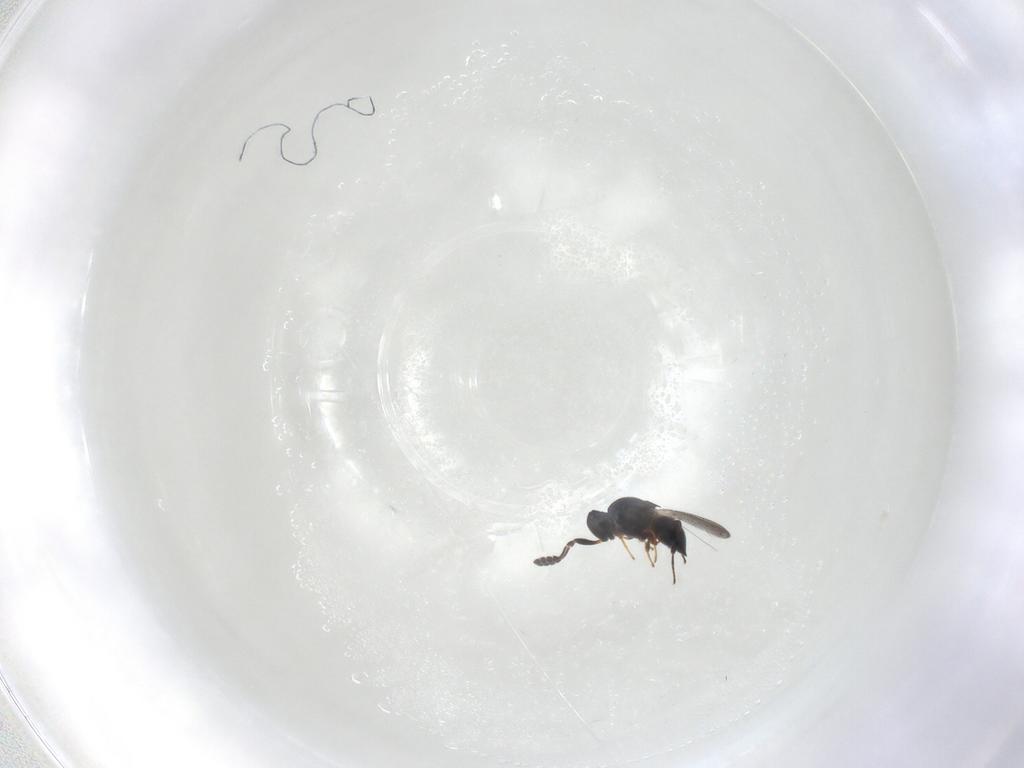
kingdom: Animalia
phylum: Arthropoda
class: Insecta
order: Hymenoptera
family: Platygastridae
